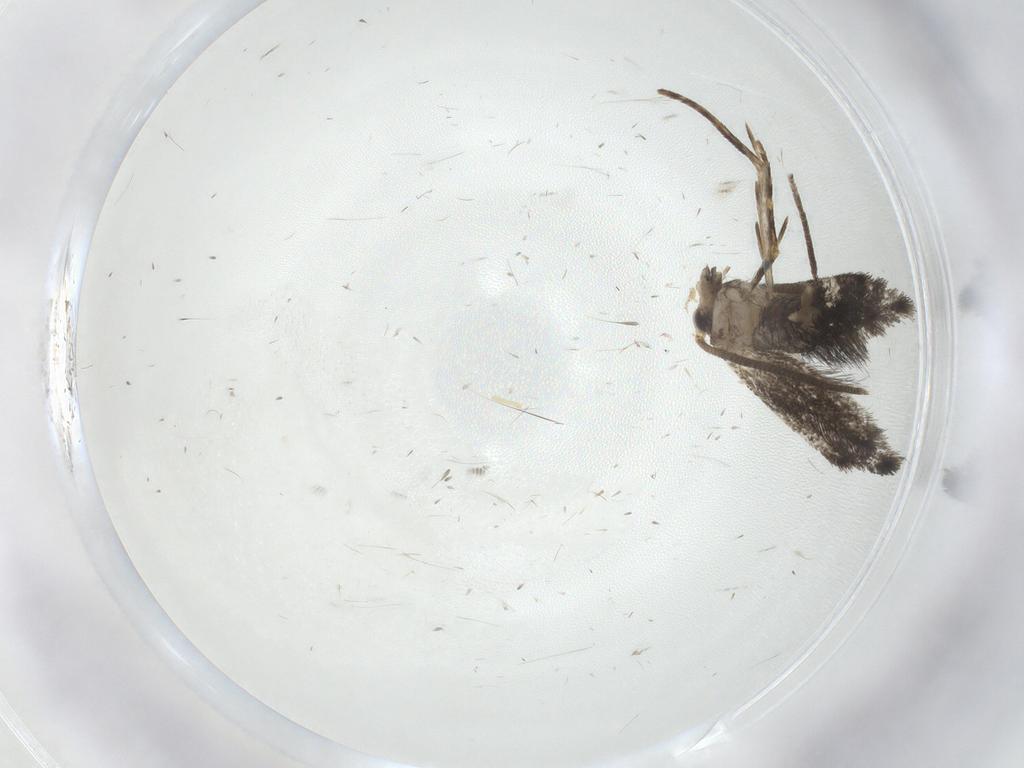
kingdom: Animalia
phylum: Arthropoda
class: Insecta
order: Lepidoptera
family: Tineidae
